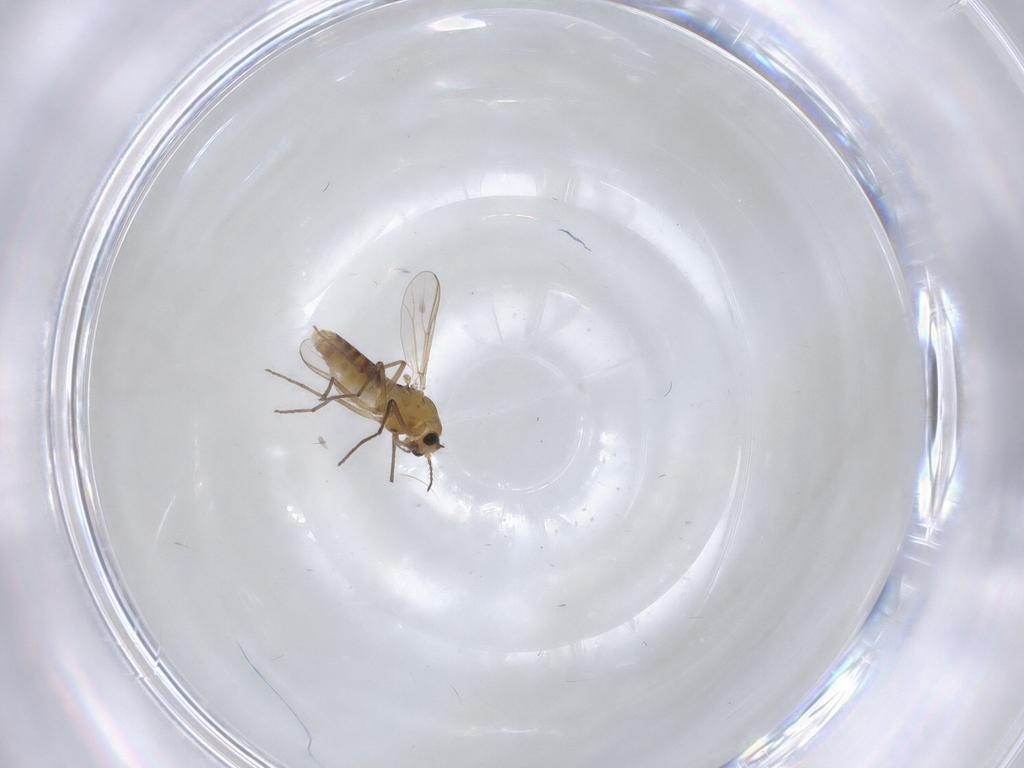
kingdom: Animalia
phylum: Arthropoda
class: Insecta
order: Diptera
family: Chironomidae
